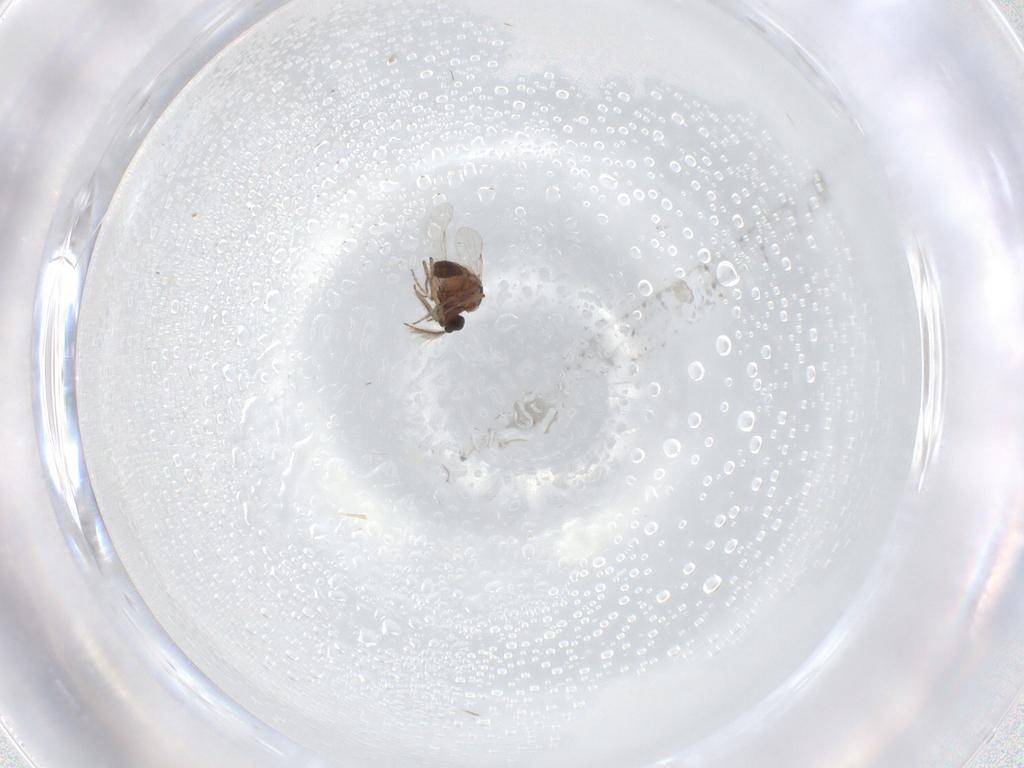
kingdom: Animalia
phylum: Arthropoda
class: Insecta
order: Diptera
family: Ceratopogonidae
